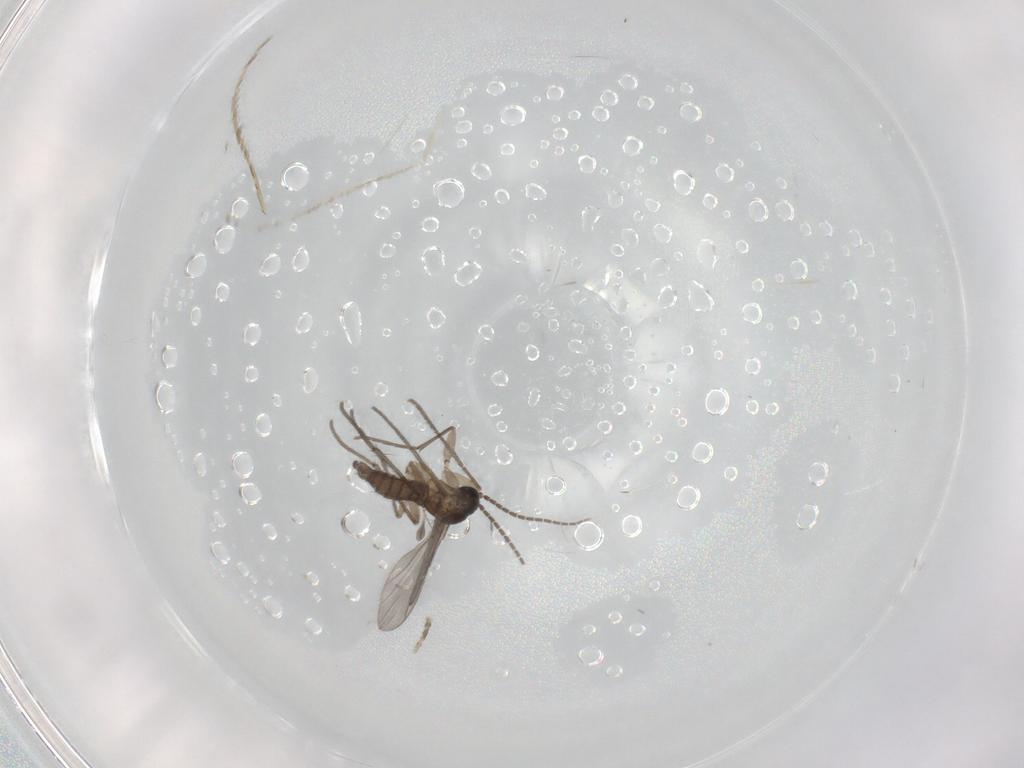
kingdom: Animalia
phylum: Arthropoda
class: Insecta
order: Diptera
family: Sciaridae
